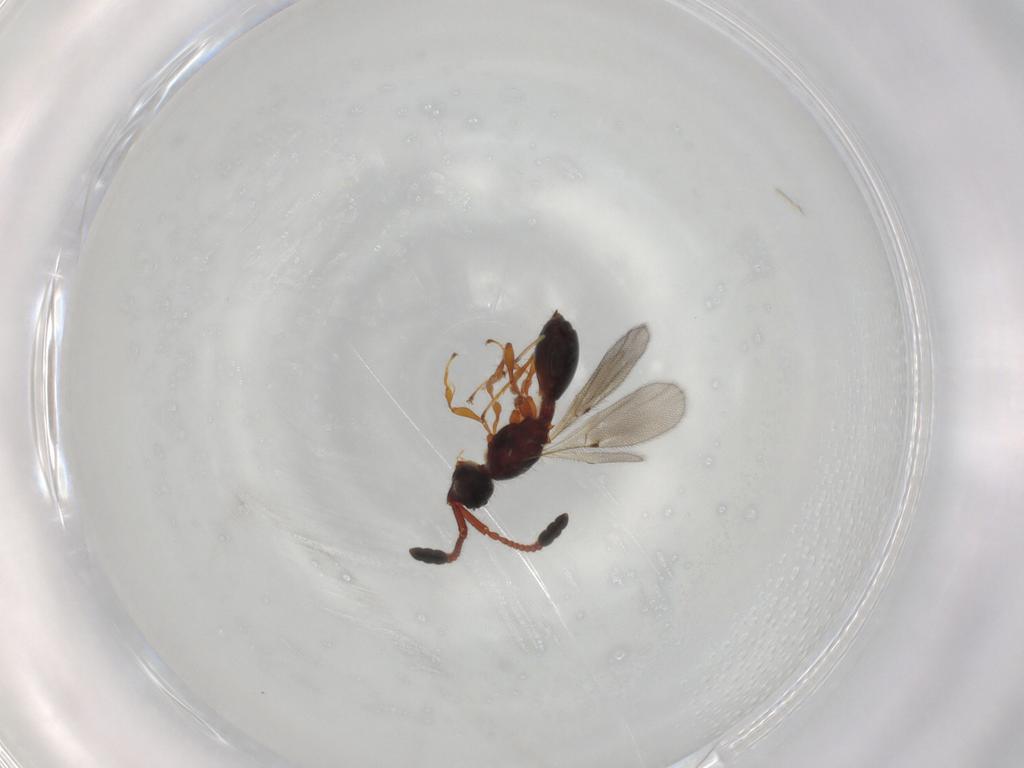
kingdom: Animalia
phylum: Arthropoda
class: Insecta
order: Hymenoptera
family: Diapriidae
